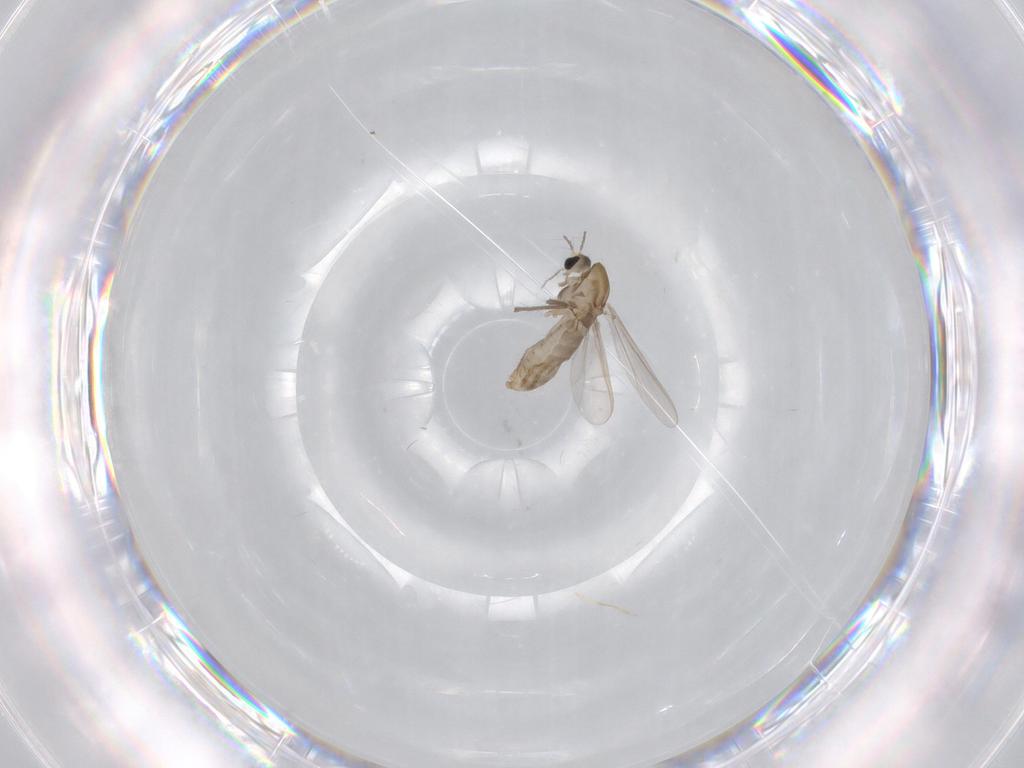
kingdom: Animalia
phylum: Arthropoda
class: Insecta
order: Diptera
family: Chironomidae
